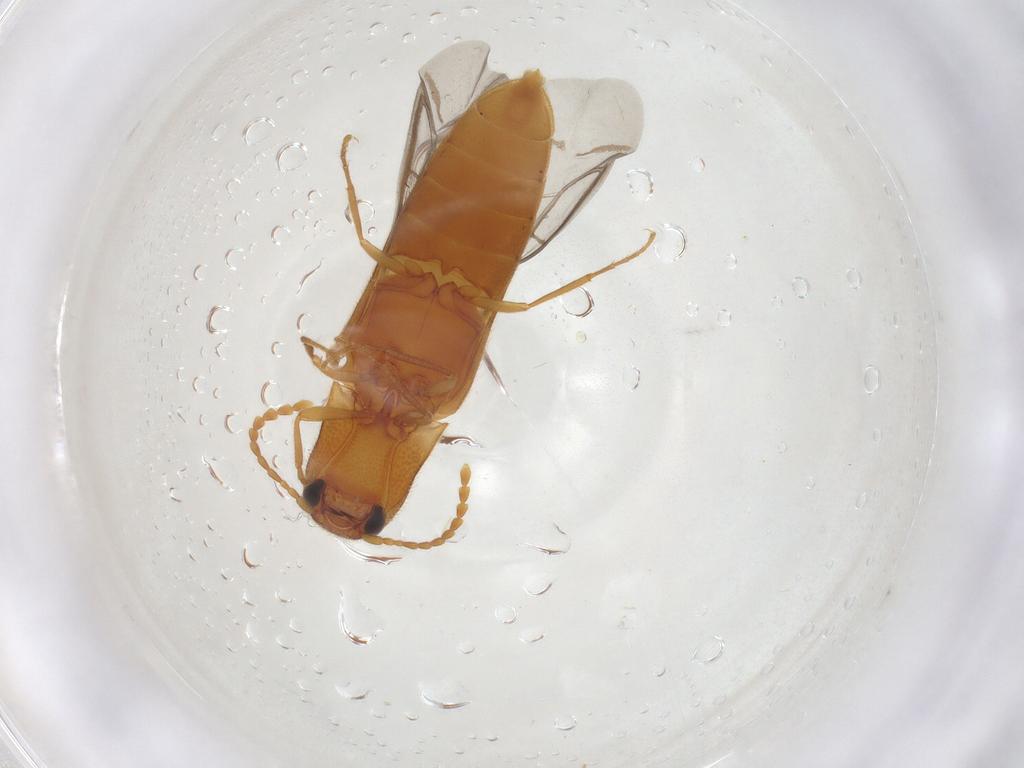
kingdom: Animalia
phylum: Arthropoda
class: Insecta
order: Coleoptera
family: Elateridae
